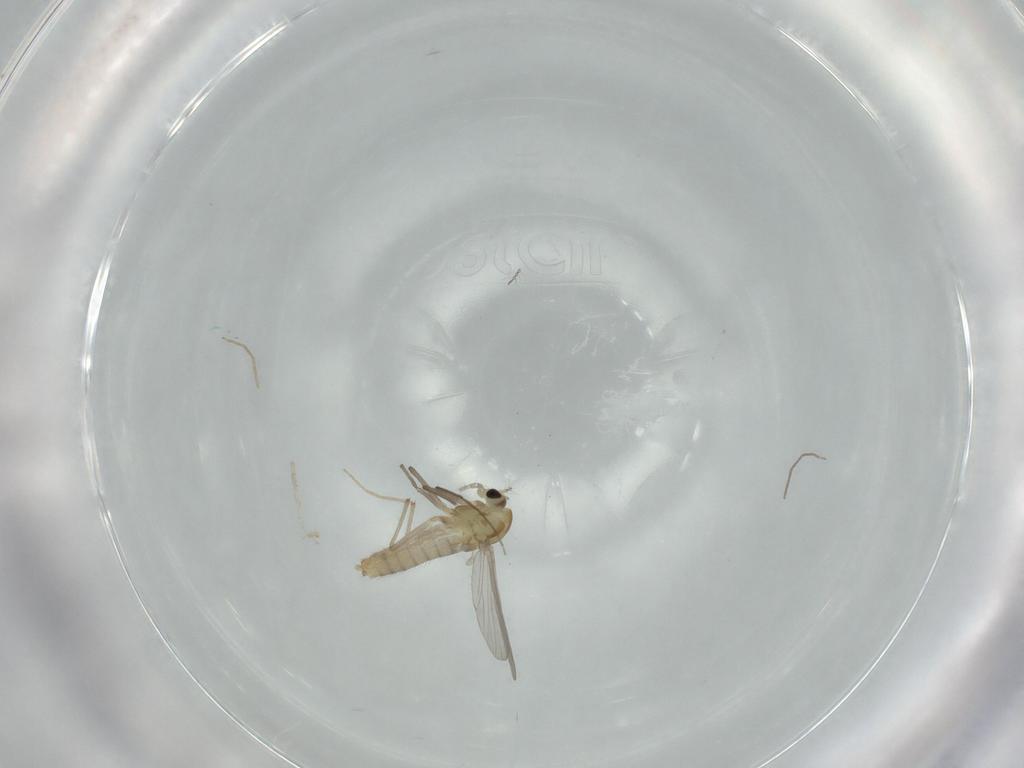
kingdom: Animalia
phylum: Arthropoda
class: Insecta
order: Diptera
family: Chironomidae
